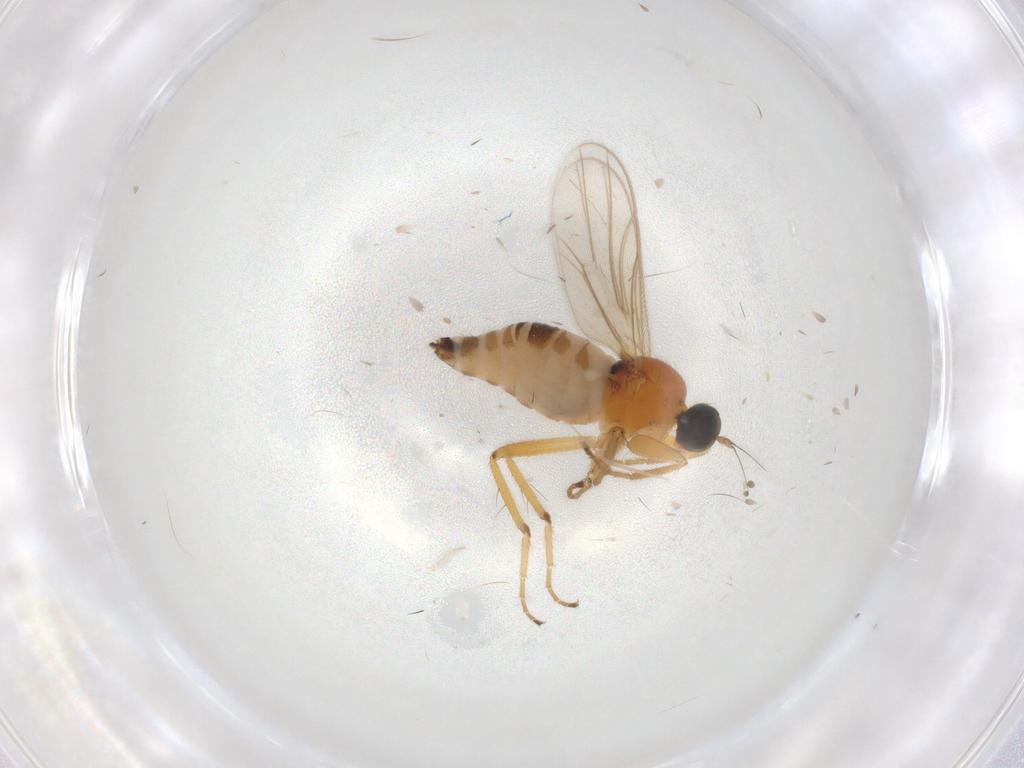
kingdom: Animalia
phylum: Arthropoda
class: Insecta
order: Diptera
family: Hybotidae
